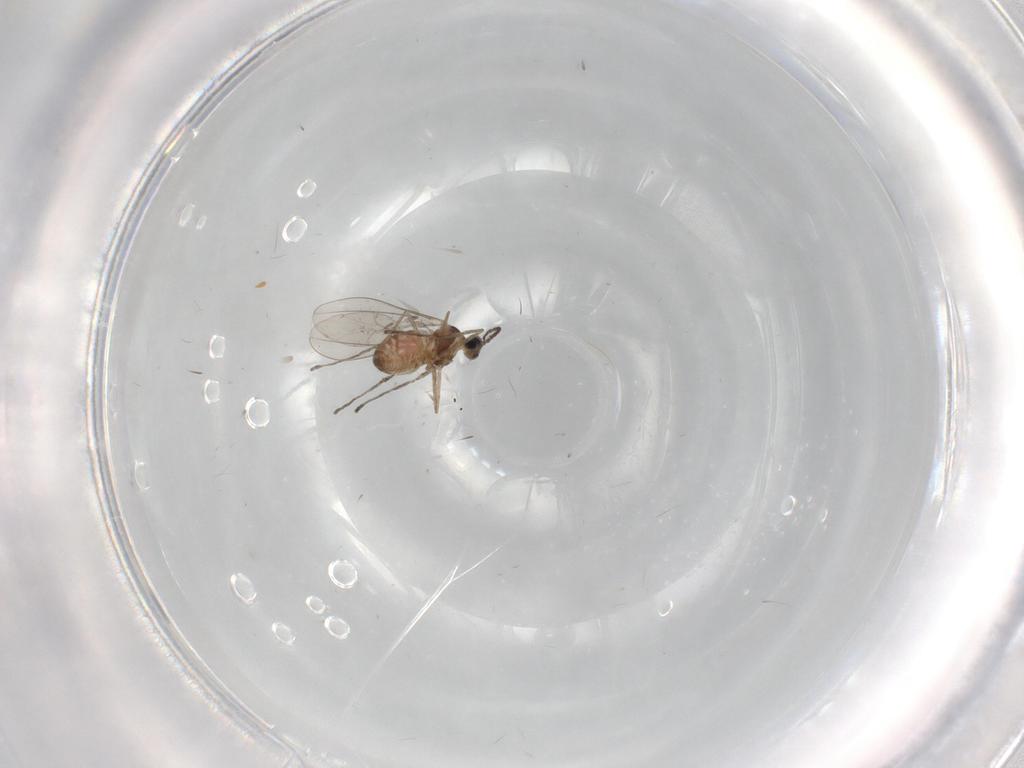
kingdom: Animalia
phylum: Arthropoda
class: Insecta
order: Diptera
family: Cecidomyiidae
